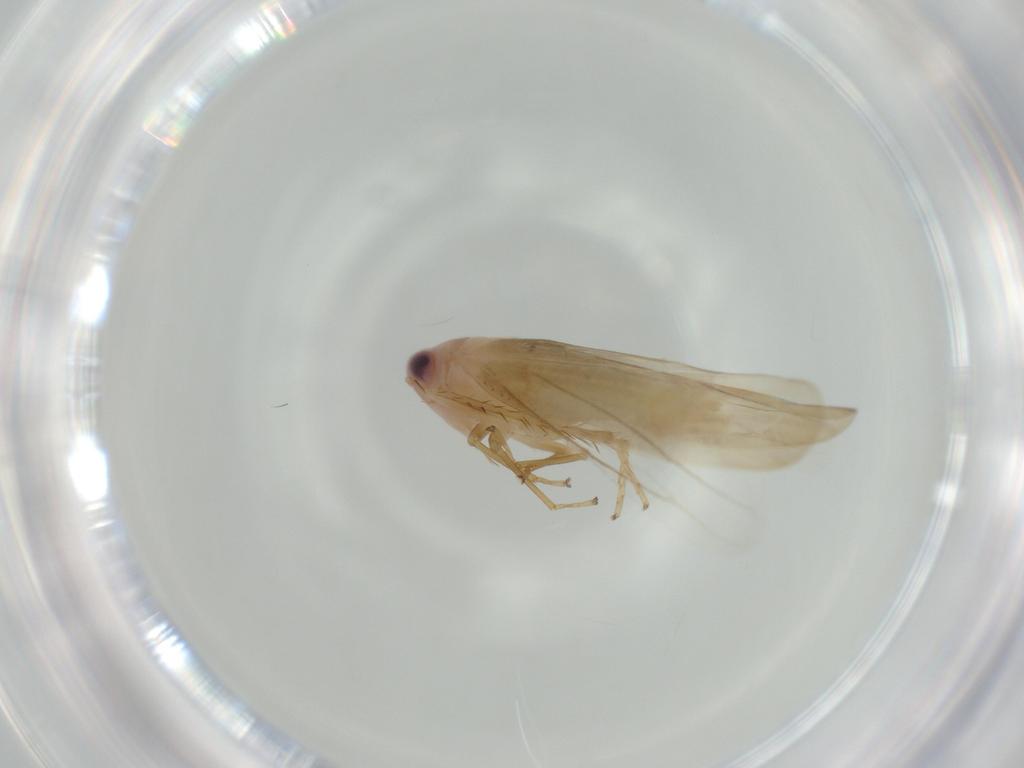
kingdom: Animalia
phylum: Arthropoda
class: Insecta
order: Hemiptera
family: Cicadellidae
